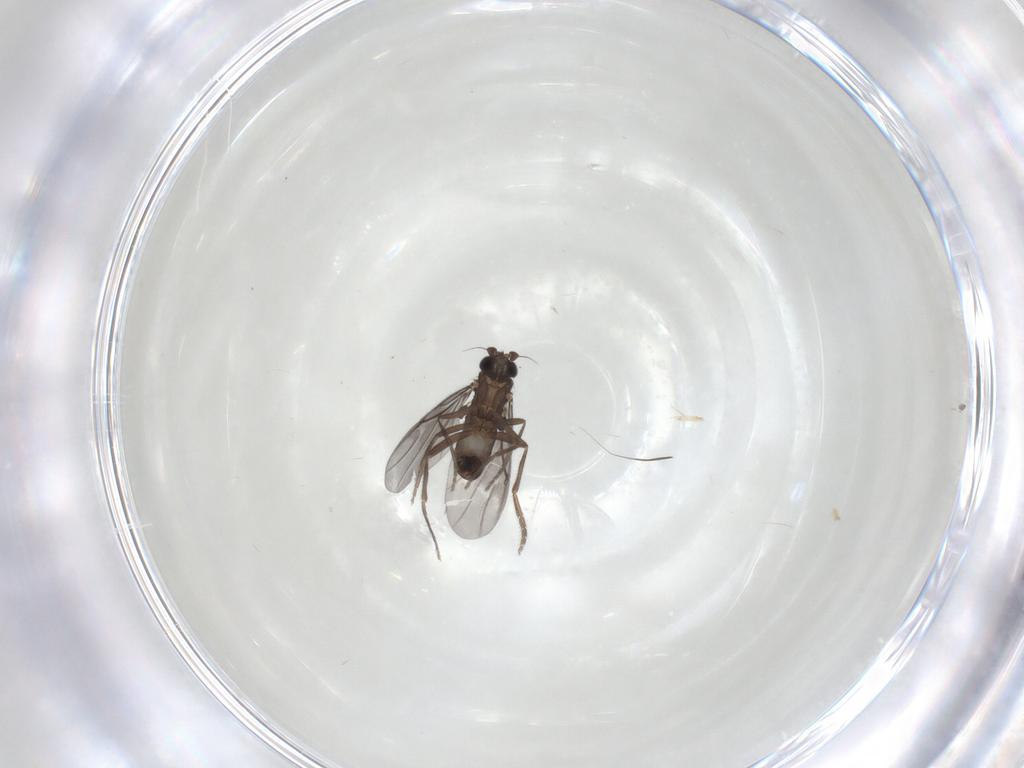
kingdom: Animalia
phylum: Arthropoda
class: Insecta
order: Diptera
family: Phoridae
